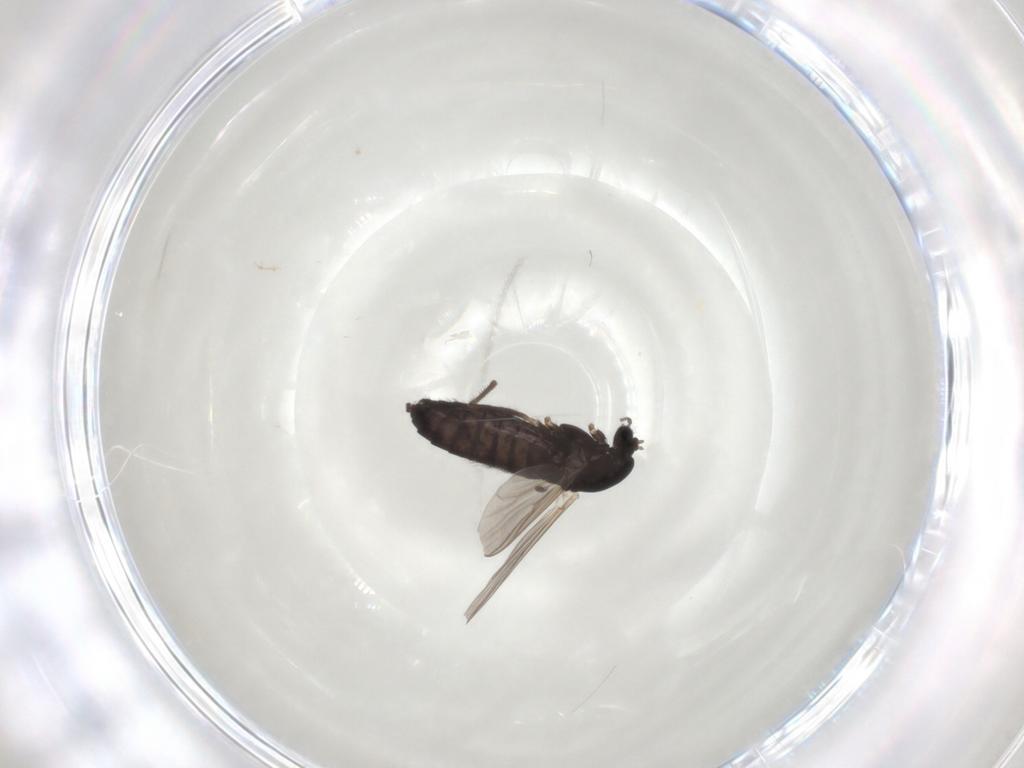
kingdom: Animalia
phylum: Arthropoda
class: Insecta
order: Diptera
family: Chironomidae
